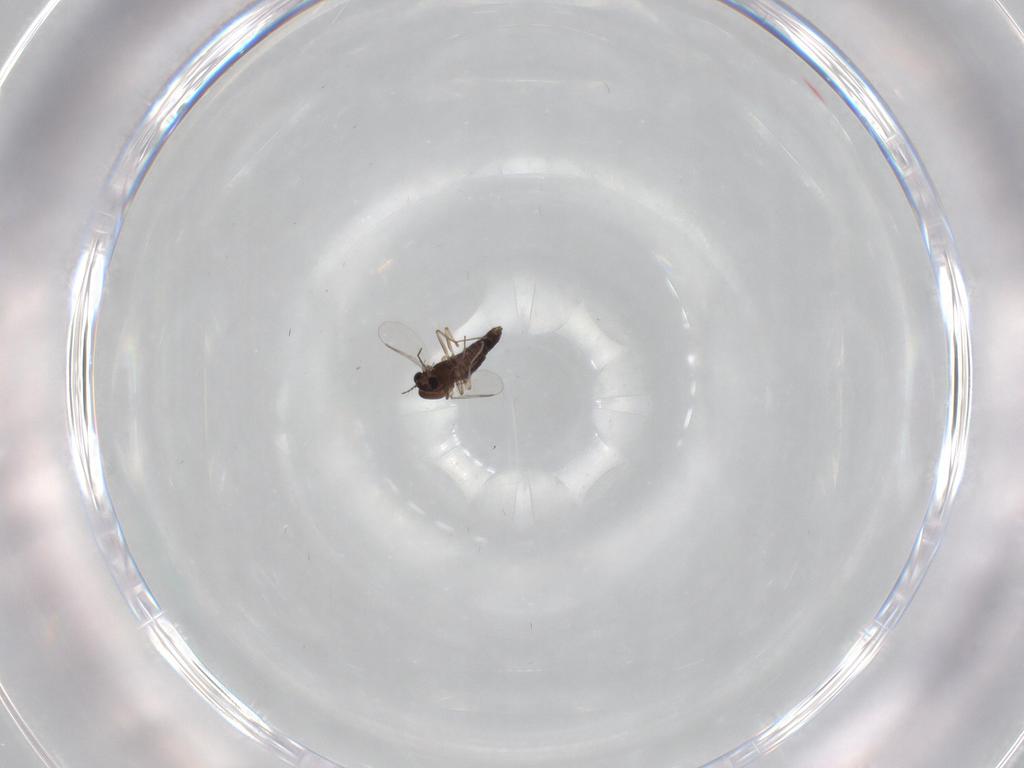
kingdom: Animalia
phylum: Arthropoda
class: Insecta
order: Diptera
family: Chironomidae
